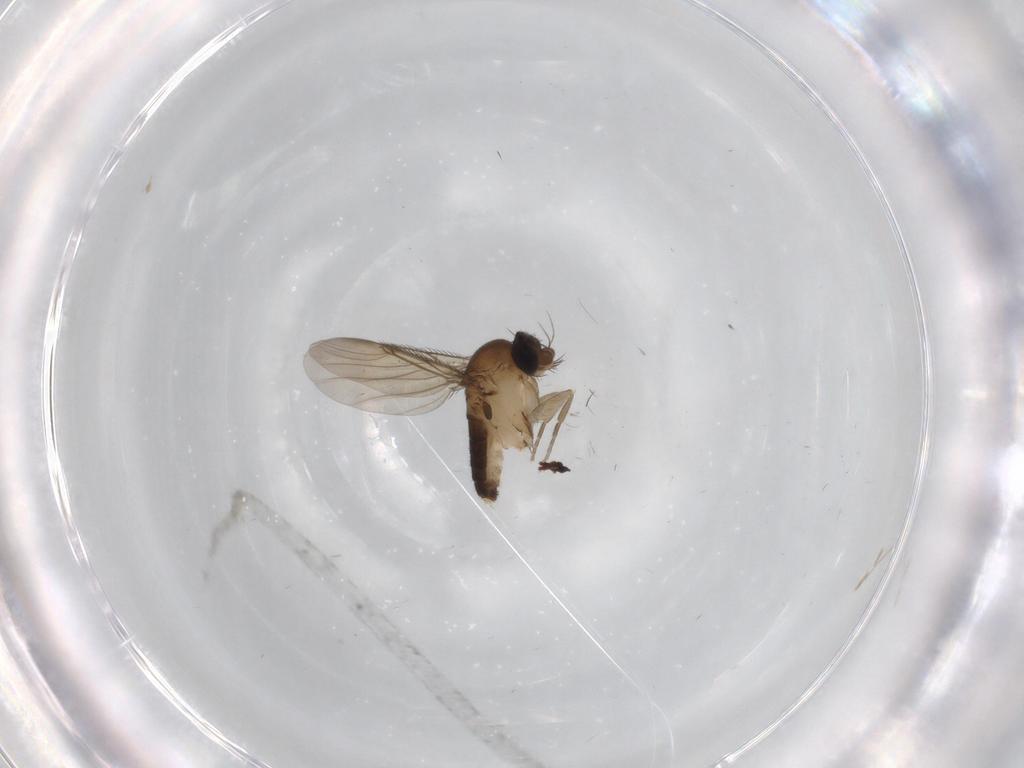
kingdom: Animalia
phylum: Arthropoda
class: Insecta
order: Diptera
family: Phoridae
